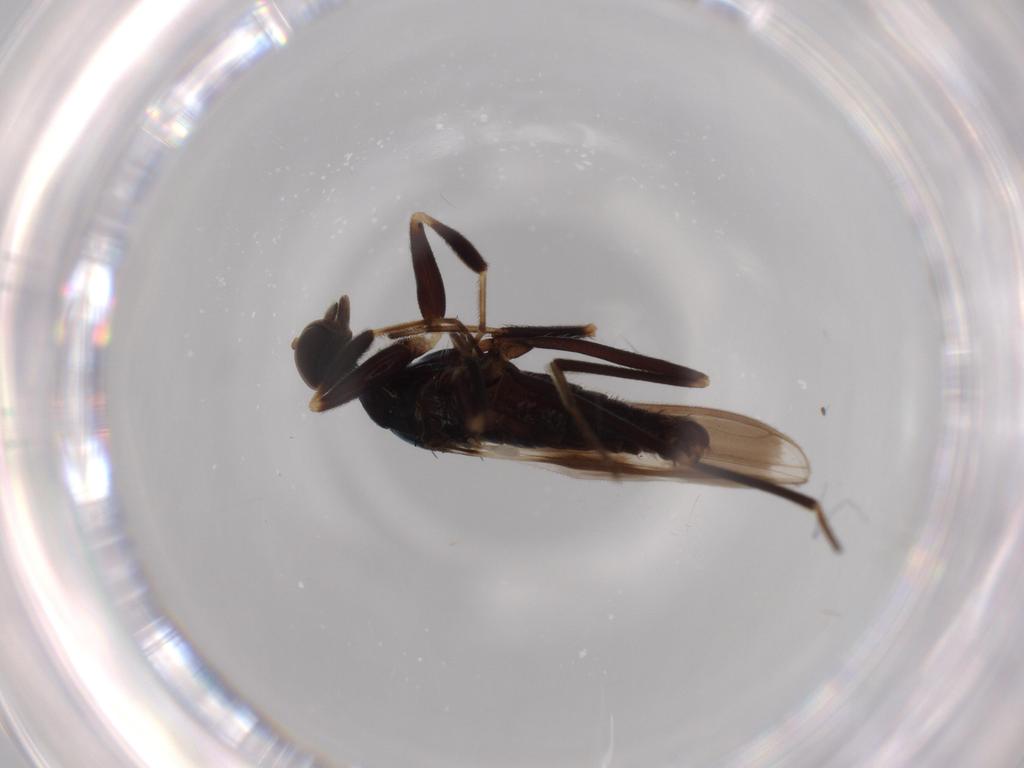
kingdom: Animalia
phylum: Arthropoda
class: Insecta
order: Diptera
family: Hybotidae
